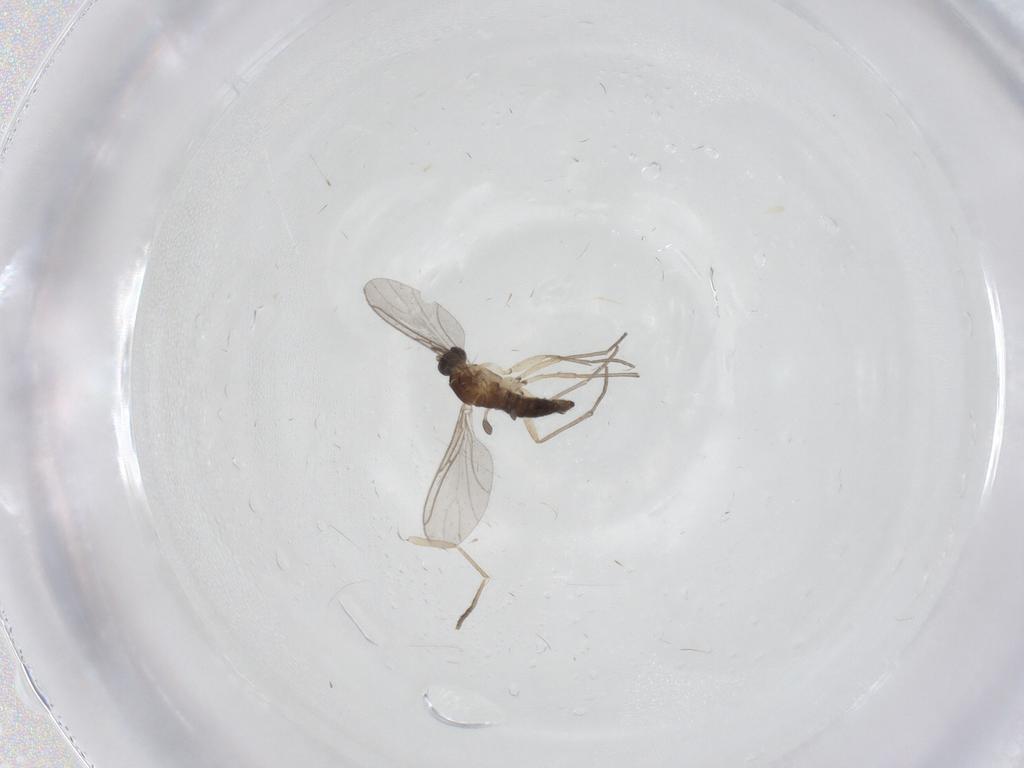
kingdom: Animalia
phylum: Arthropoda
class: Insecta
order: Diptera
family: Sciaridae
